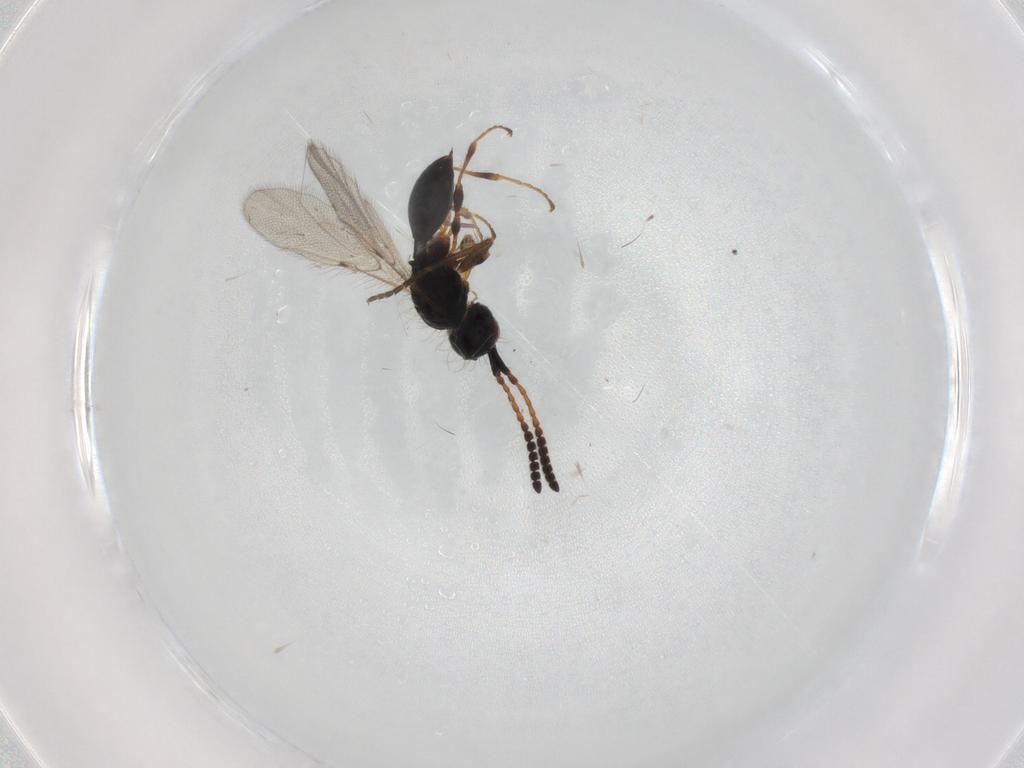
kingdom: Animalia
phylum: Arthropoda
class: Insecta
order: Hymenoptera
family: Diapriidae
